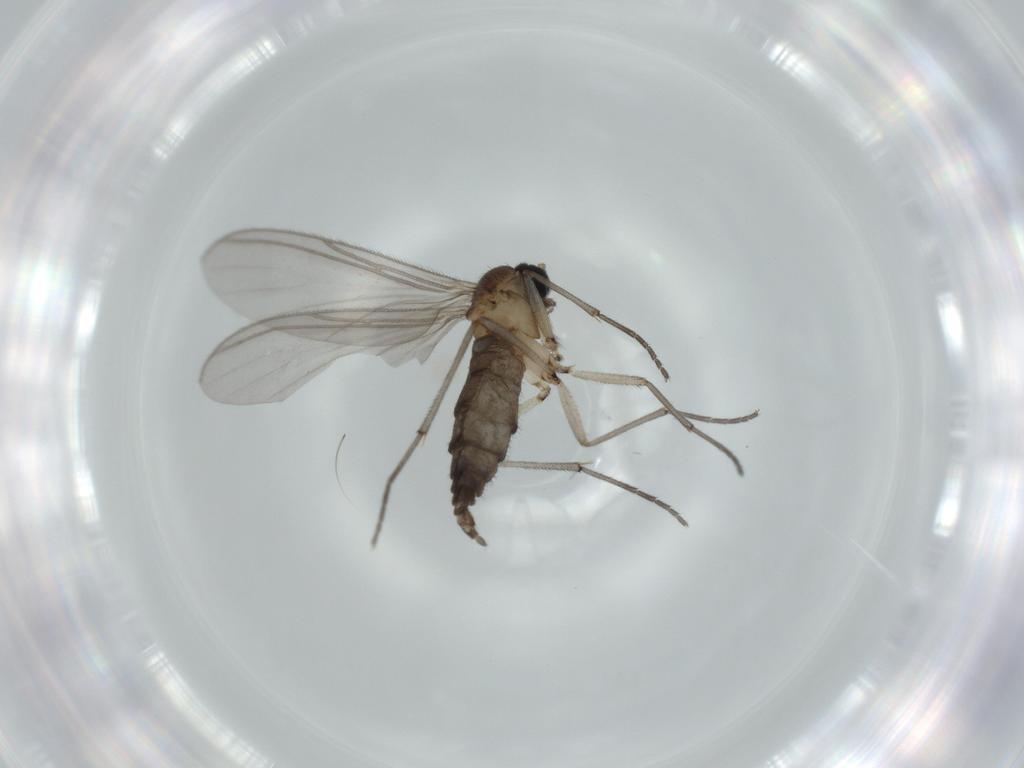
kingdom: Animalia
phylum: Arthropoda
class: Insecta
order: Diptera
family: Sciaridae
